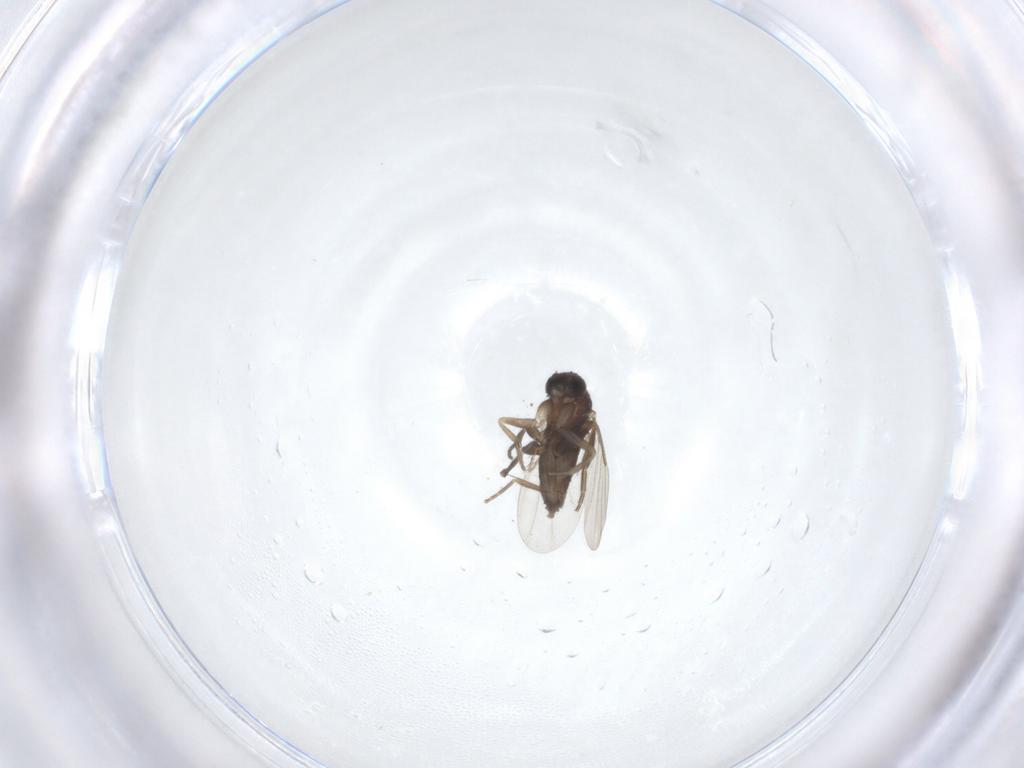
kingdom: Animalia
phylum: Arthropoda
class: Insecta
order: Diptera
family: Phoridae
